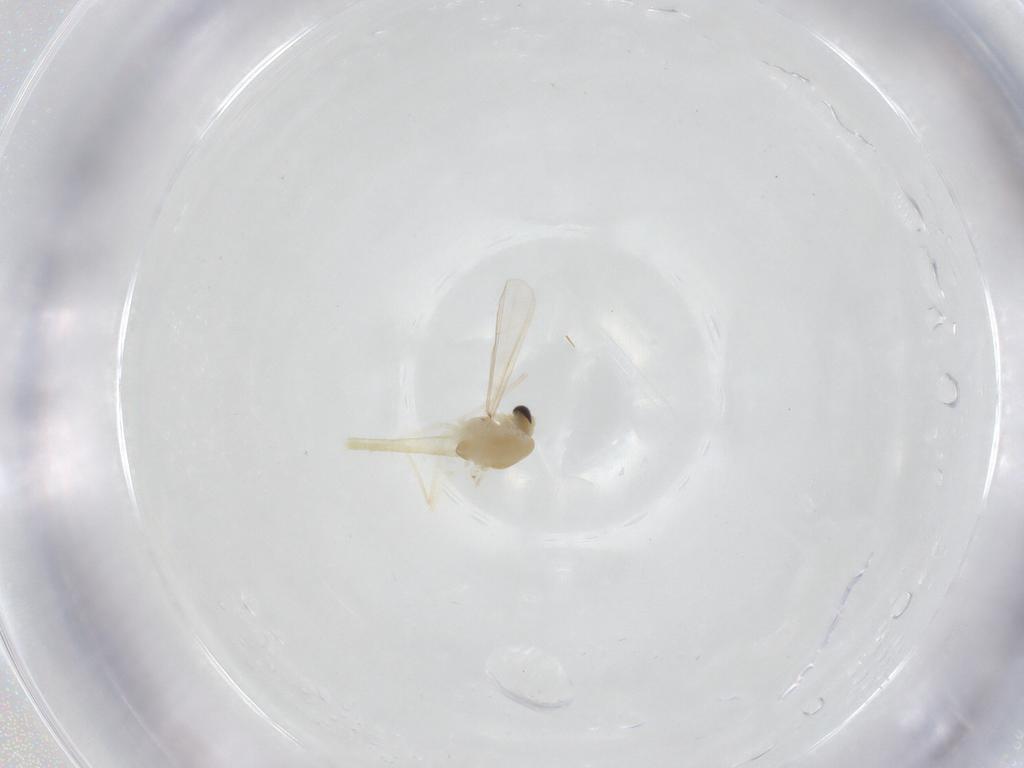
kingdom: Animalia
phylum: Arthropoda
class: Insecta
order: Diptera
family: Chironomidae
